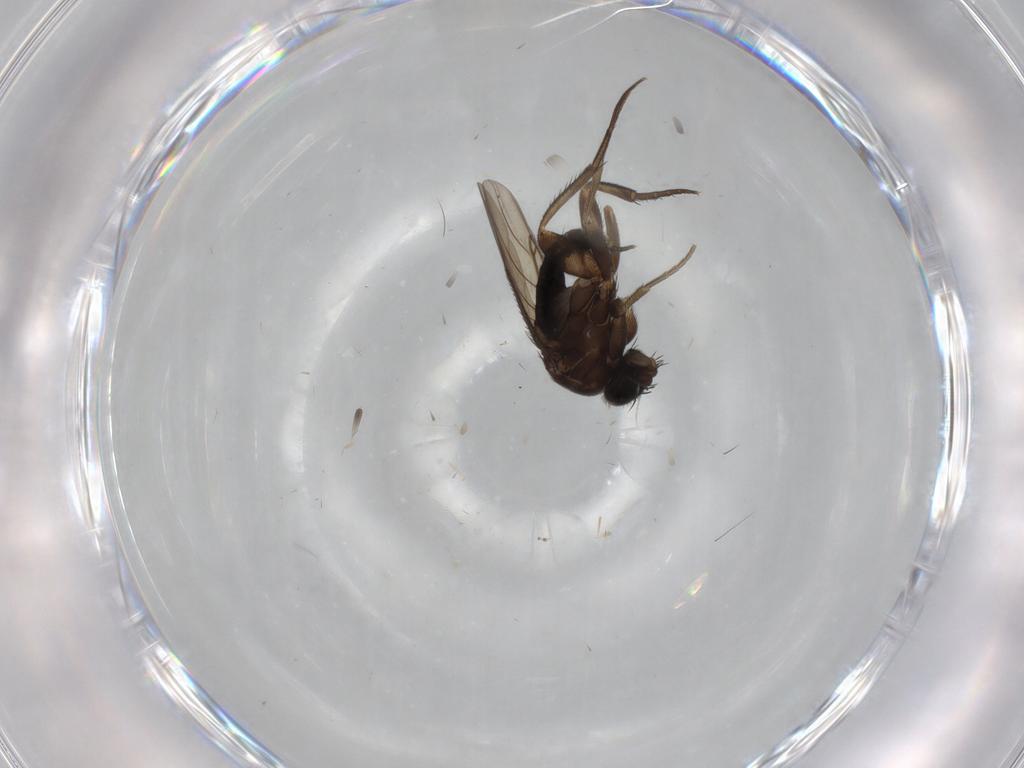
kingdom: Animalia
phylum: Arthropoda
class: Insecta
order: Diptera
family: Phoridae
